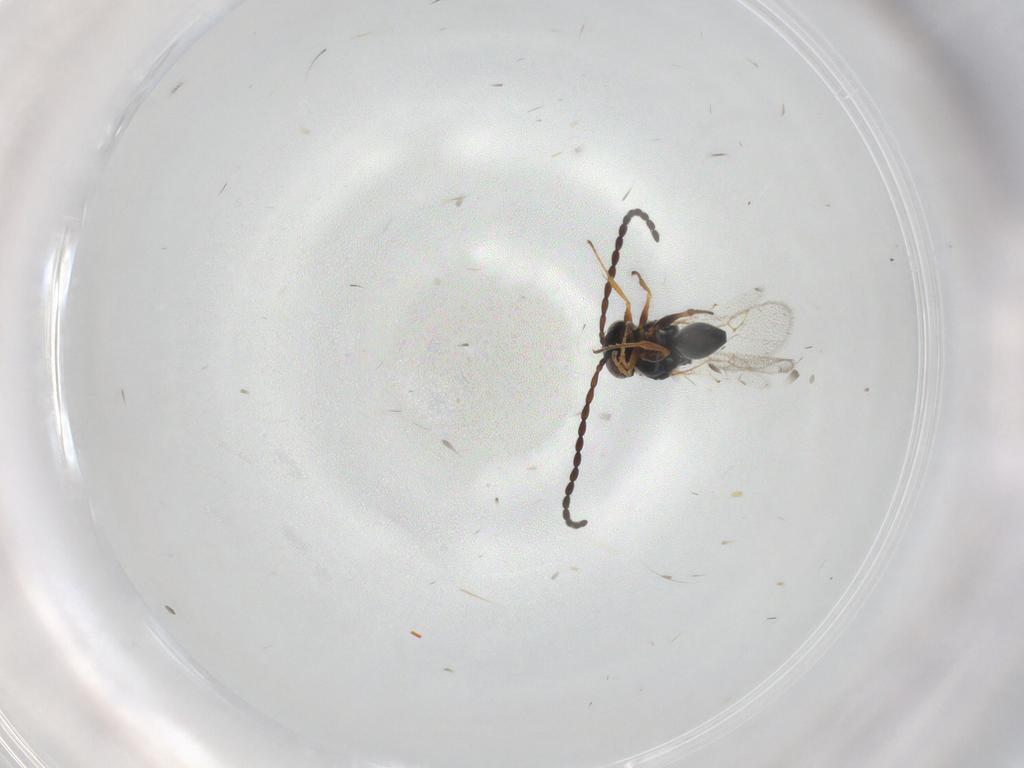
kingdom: Animalia
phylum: Arthropoda
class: Insecta
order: Hymenoptera
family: Figitidae
